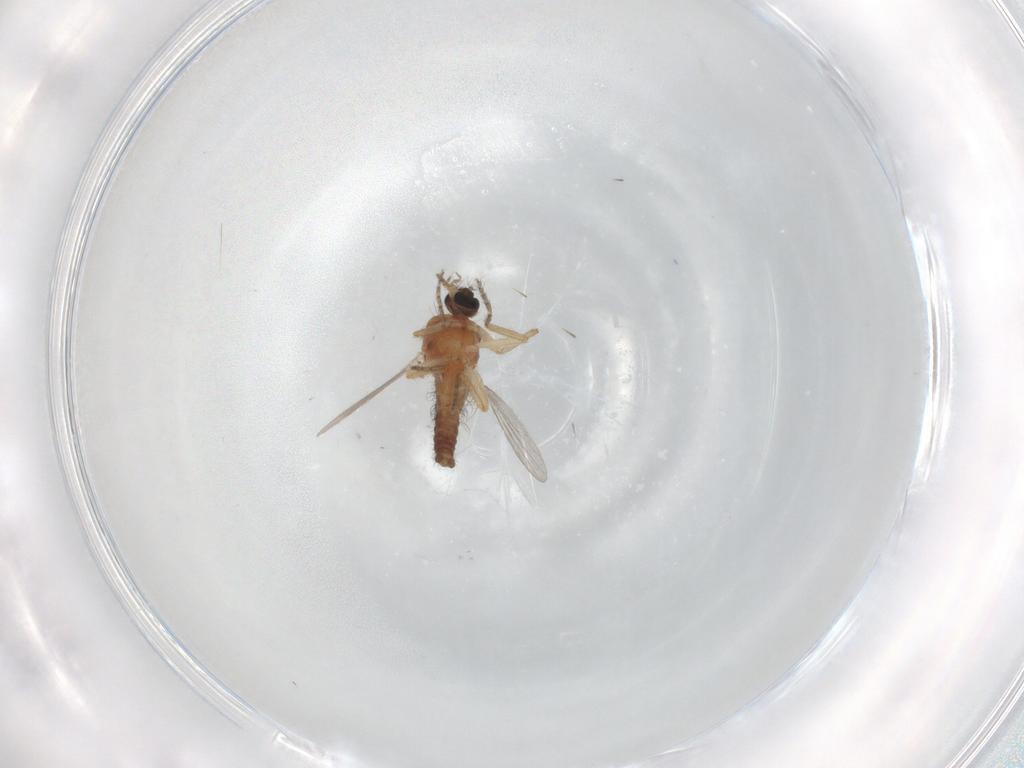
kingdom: Animalia
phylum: Arthropoda
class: Insecta
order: Diptera
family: Ceratopogonidae
